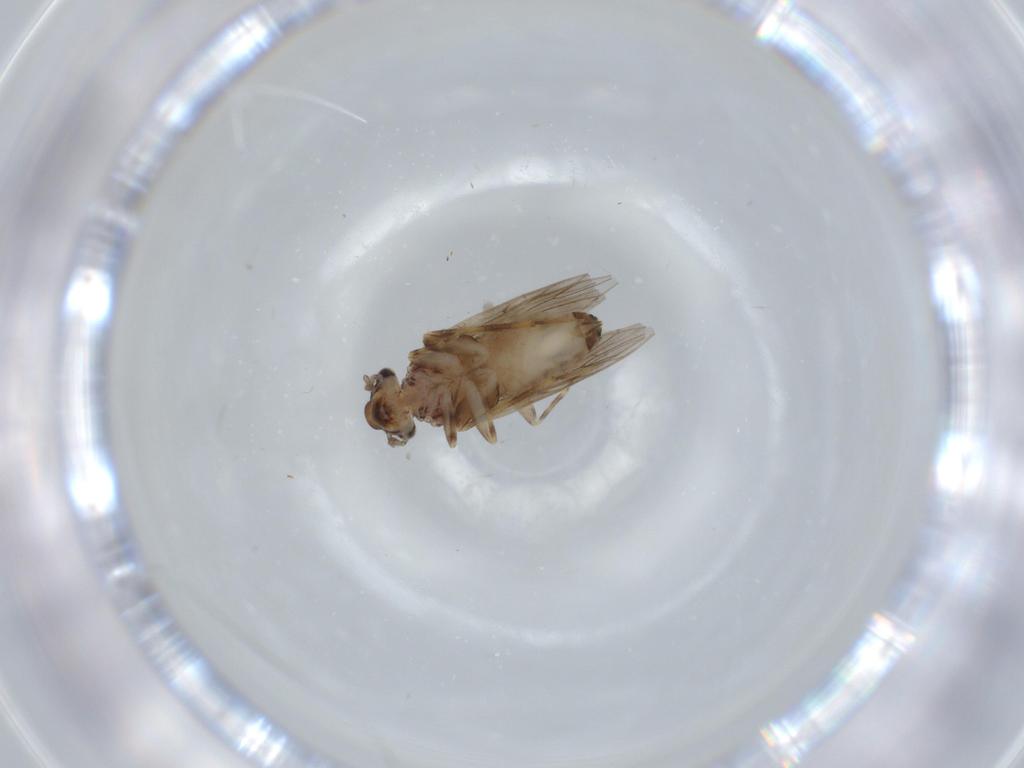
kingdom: Animalia
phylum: Arthropoda
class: Insecta
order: Psocodea
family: Lepidopsocidae
